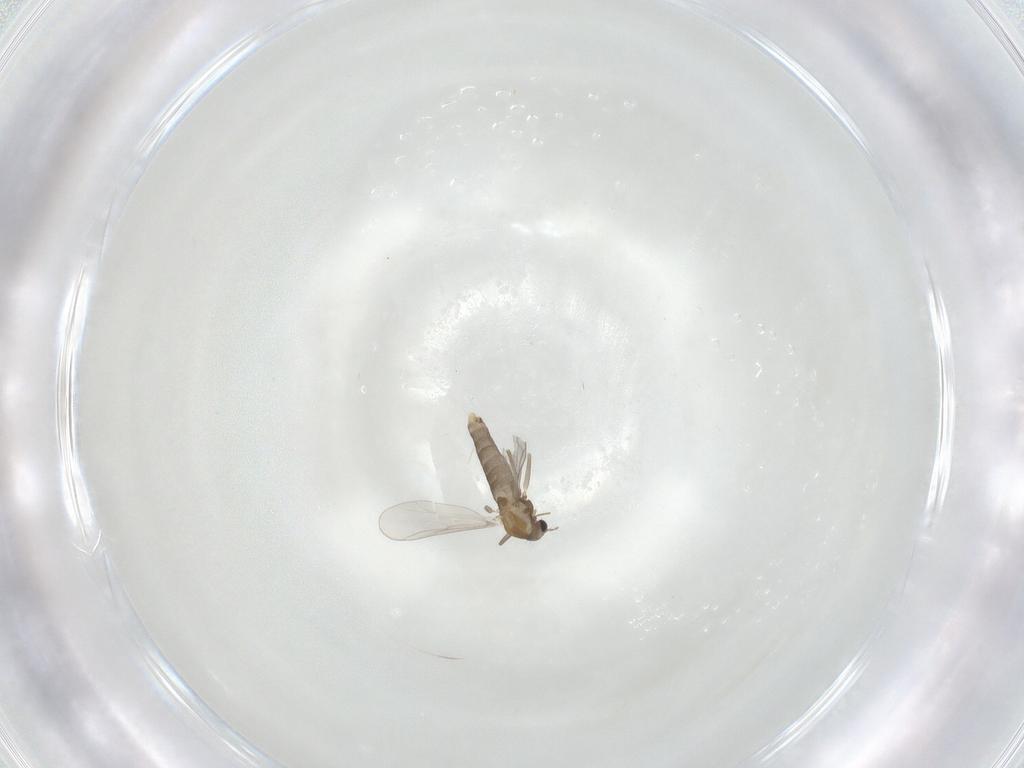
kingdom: Animalia
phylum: Arthropoda
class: Insecta
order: Diptera
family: Chironomidae
